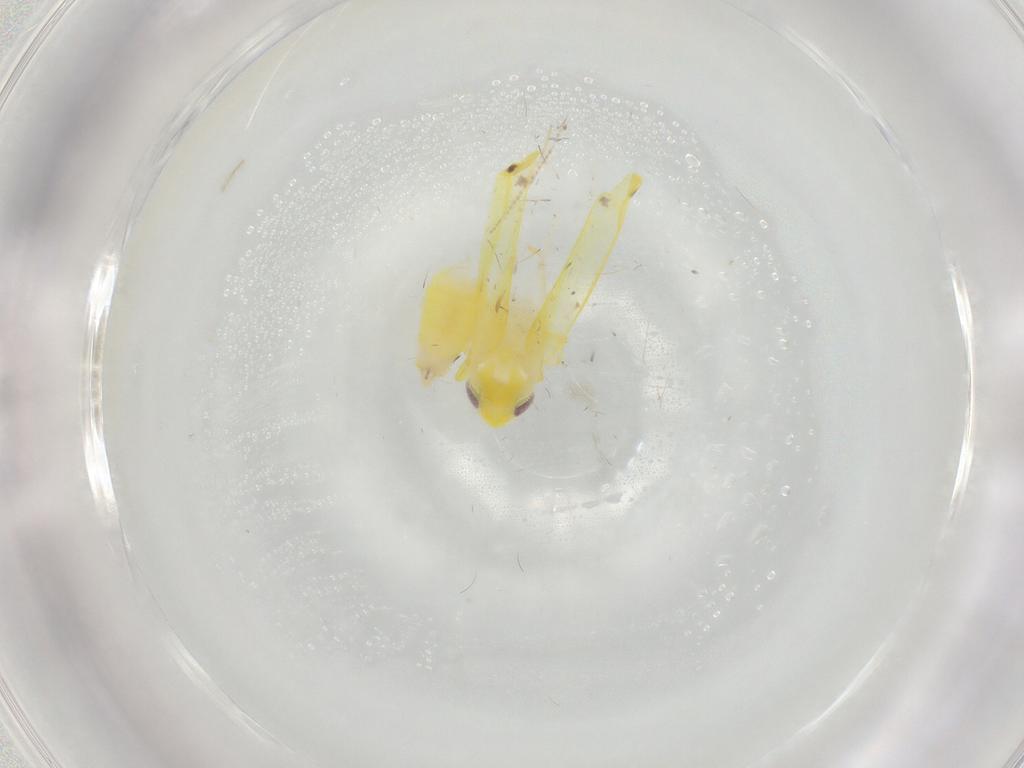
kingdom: Animalia
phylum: Arthropoda
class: Insecta
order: Hemiptera
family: Cicadellidae
